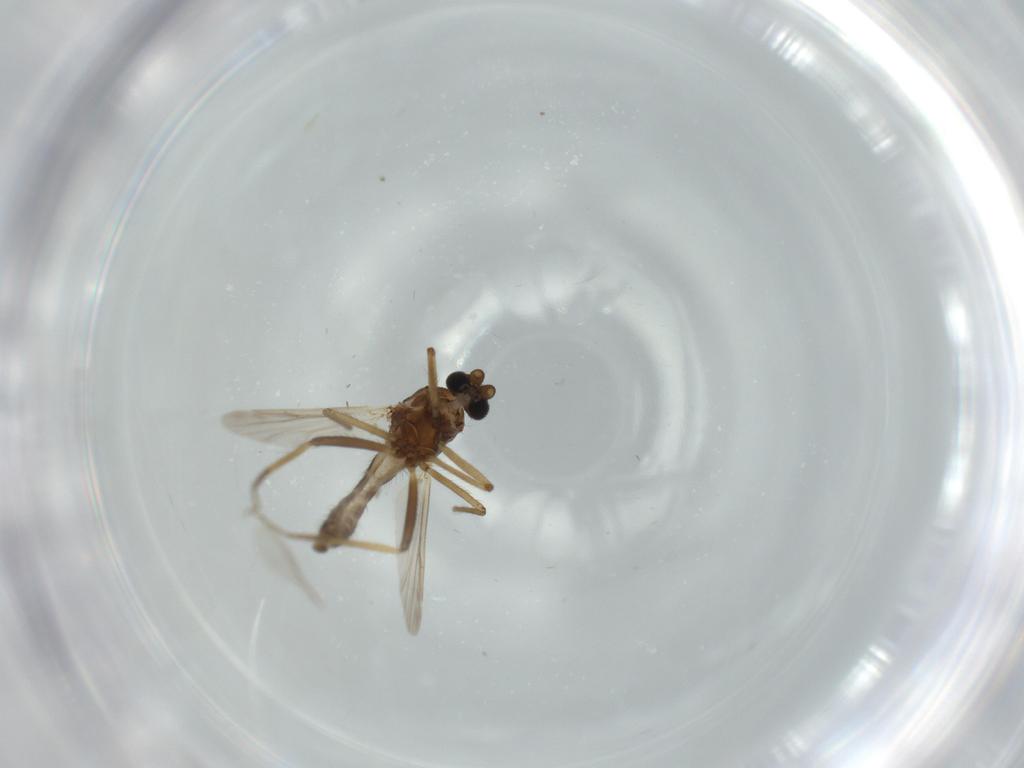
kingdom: Animalia
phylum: Arthropoda
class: Insecta
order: Diptera
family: Ceratopogonidae
